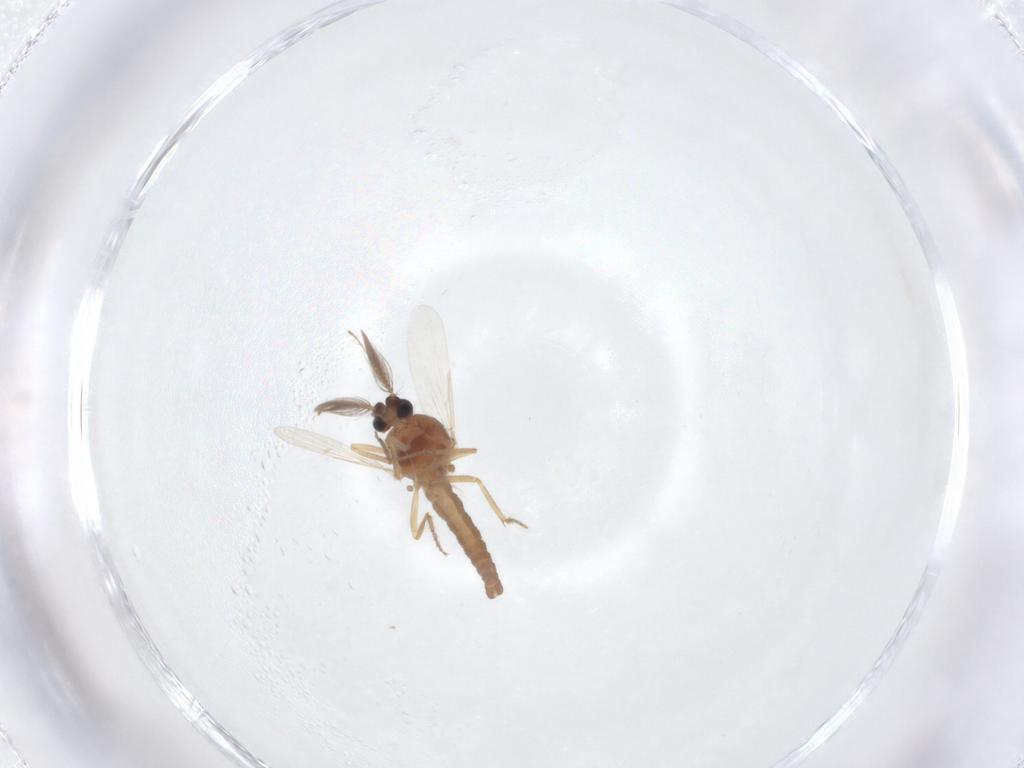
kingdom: Animalia
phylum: Arthropoda
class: Insecta
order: Diptera
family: Ceratopogonidae
